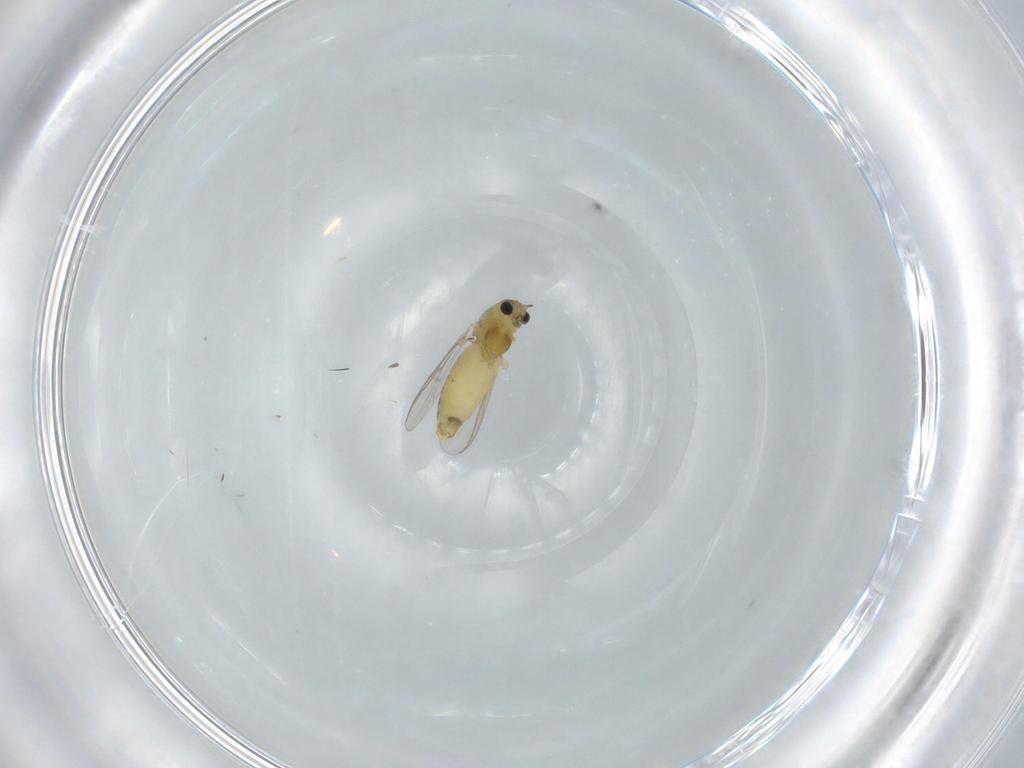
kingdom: Animalia
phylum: Arthropoda
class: Insecta
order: Diptera
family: Chironomidae
